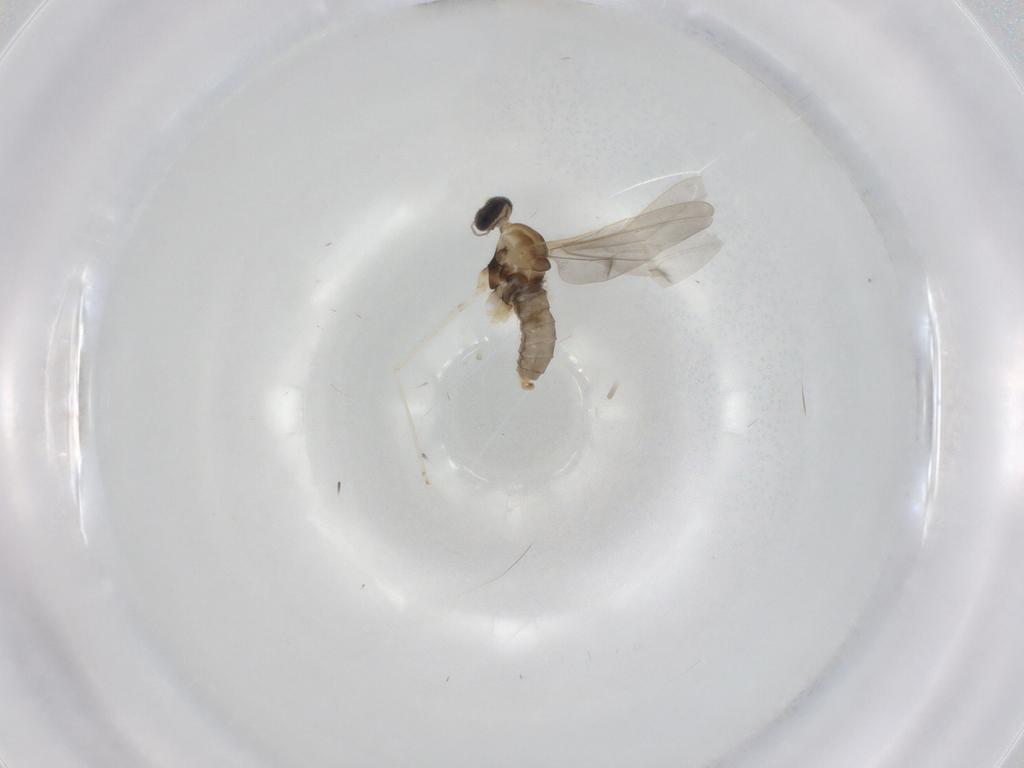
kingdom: Animalia
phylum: Arthropoda
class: Insecta
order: Diptera
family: Cecidomyiidae
